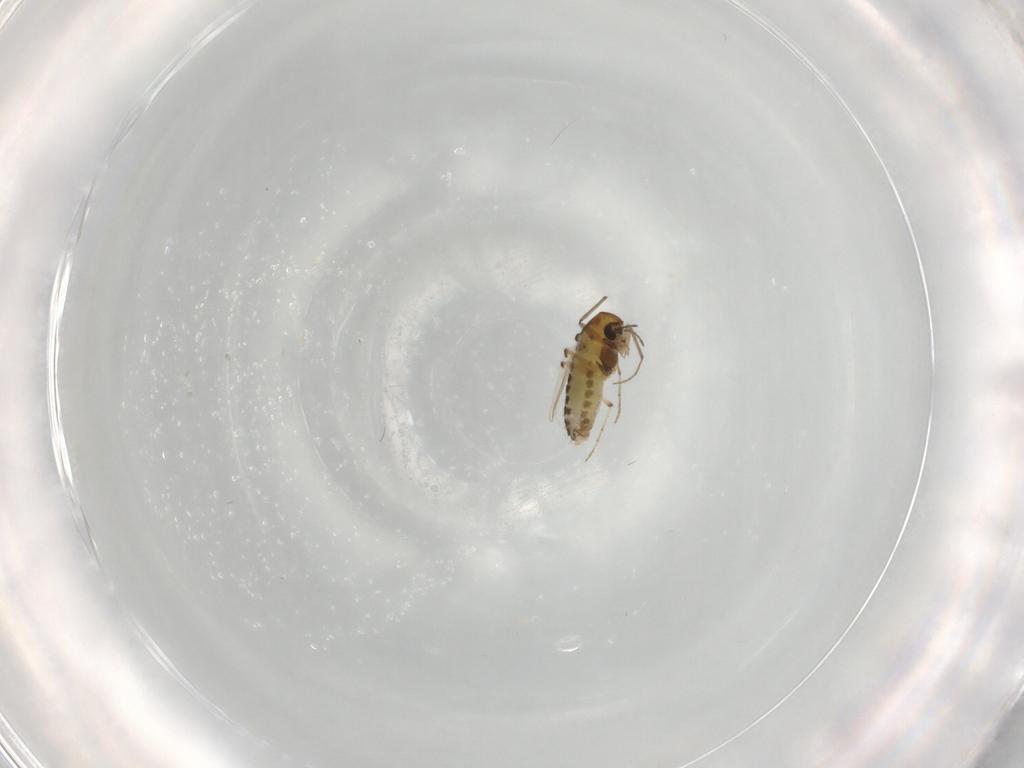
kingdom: Animalia
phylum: Arthropoda
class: Insecta
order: Diptera
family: Chironomidae
